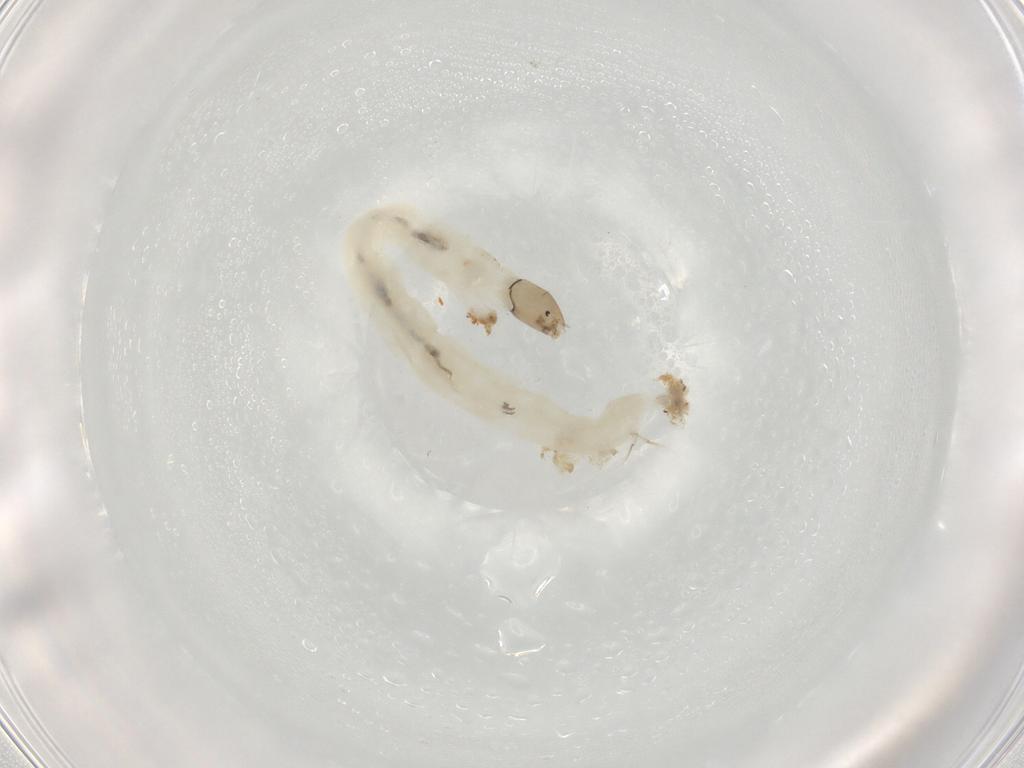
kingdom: Animalia
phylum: Arthropoda
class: Insecta
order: Diptera
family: Chironomidae
